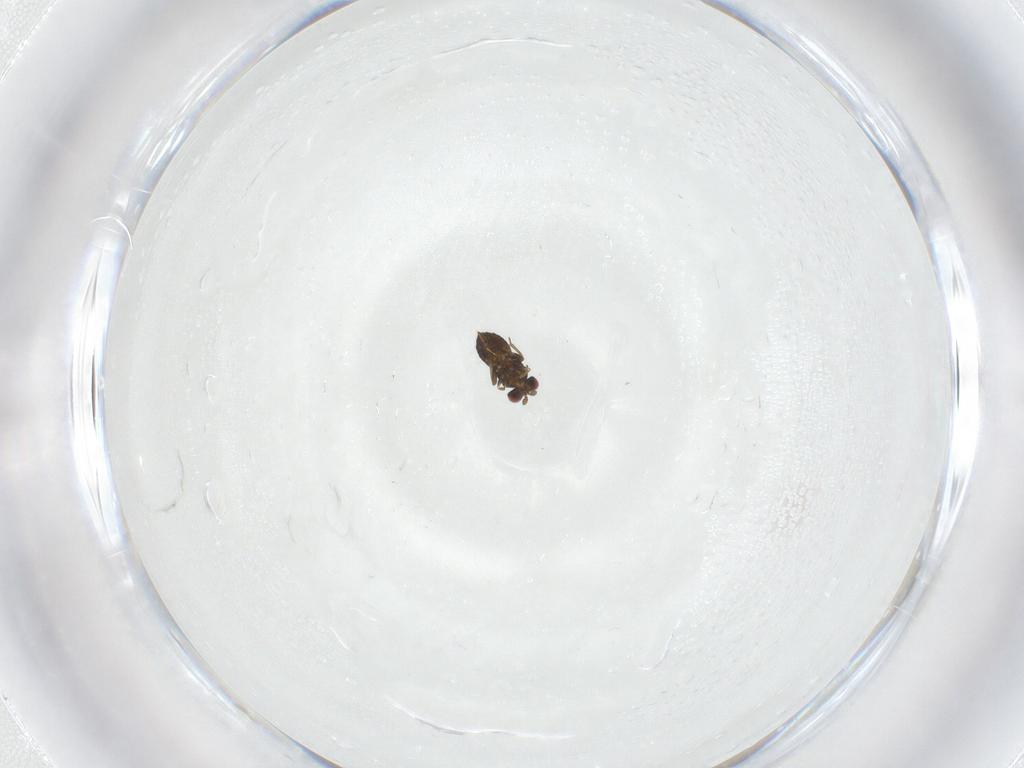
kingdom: Animalia
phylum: Arthropoda
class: Insecta
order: Hymenoptera
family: Trichogrammatidae
